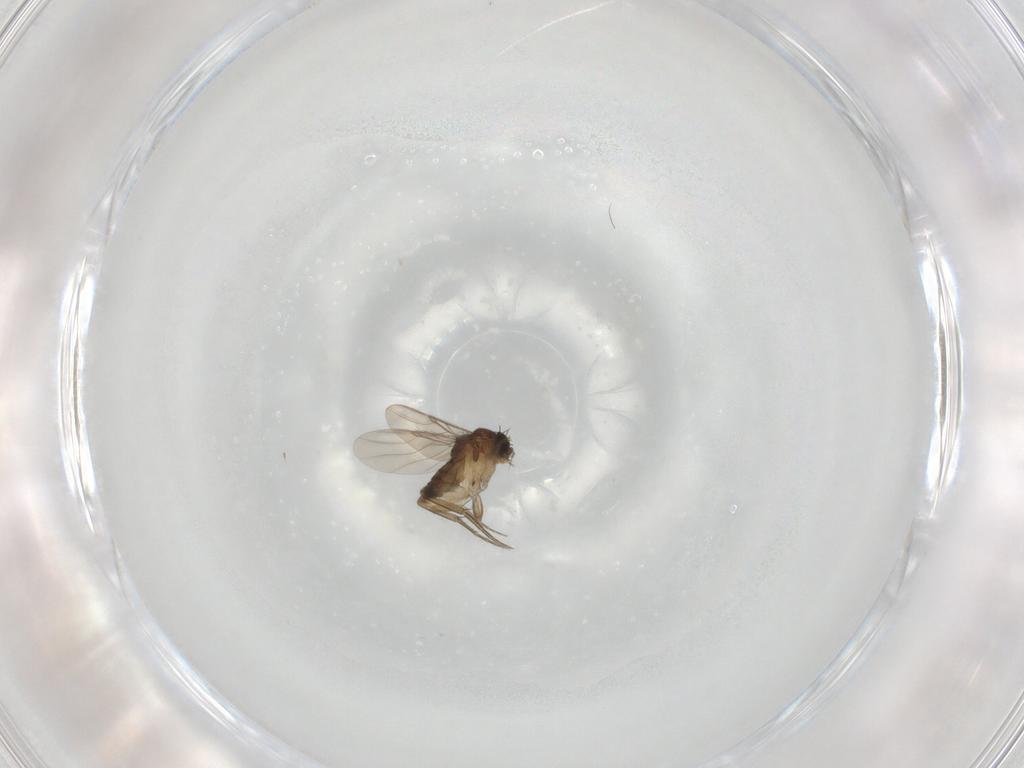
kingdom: Animalia
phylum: Arthropoda
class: Insecta
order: Diptera
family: Phoridae
